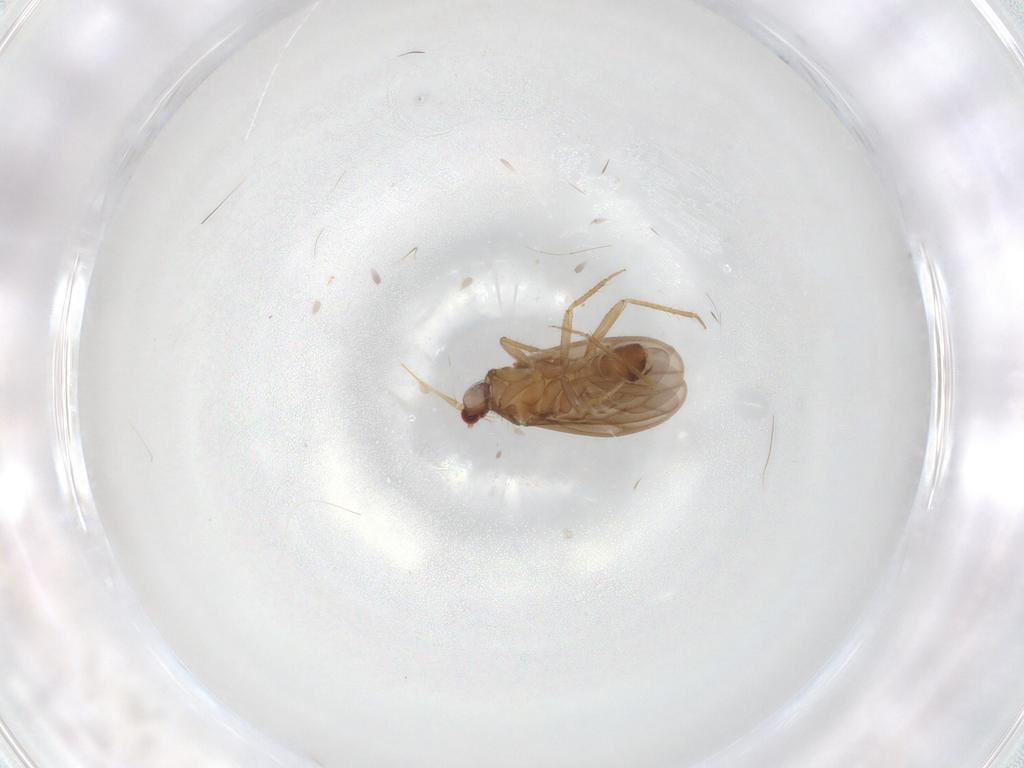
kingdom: Animalia
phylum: Arthropoda
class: Insecta
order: Hemiptera
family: Ceratocombidae
